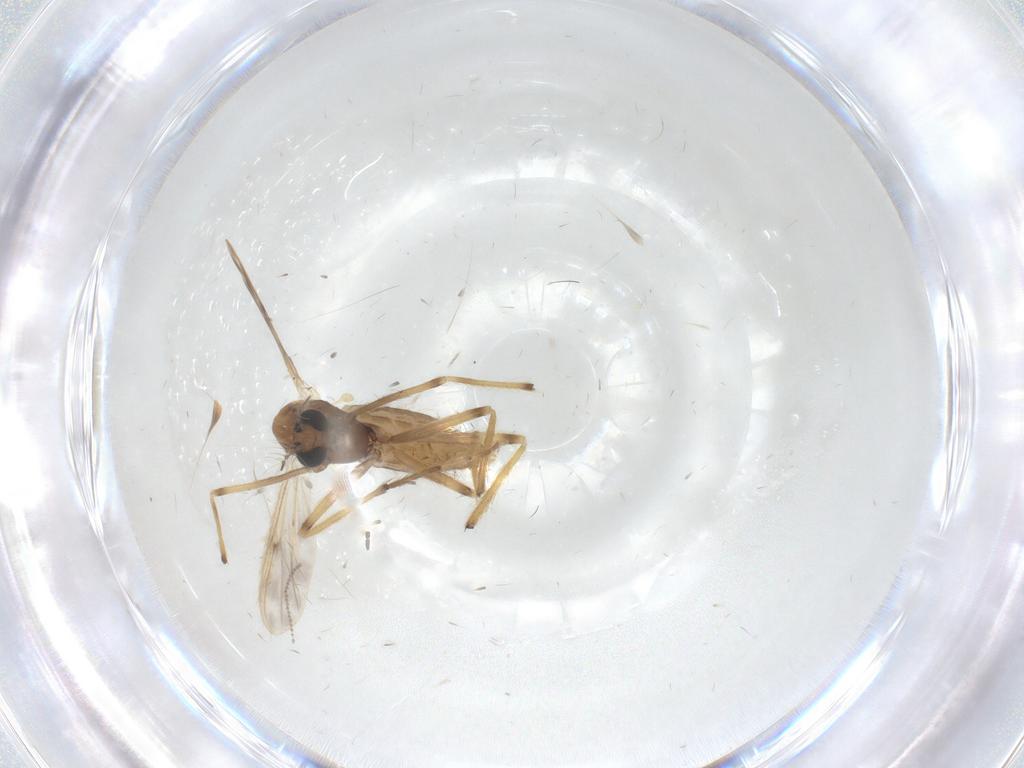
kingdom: Animalia
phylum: Arthropoda
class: Insecta
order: Diptera
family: Chironomidae
